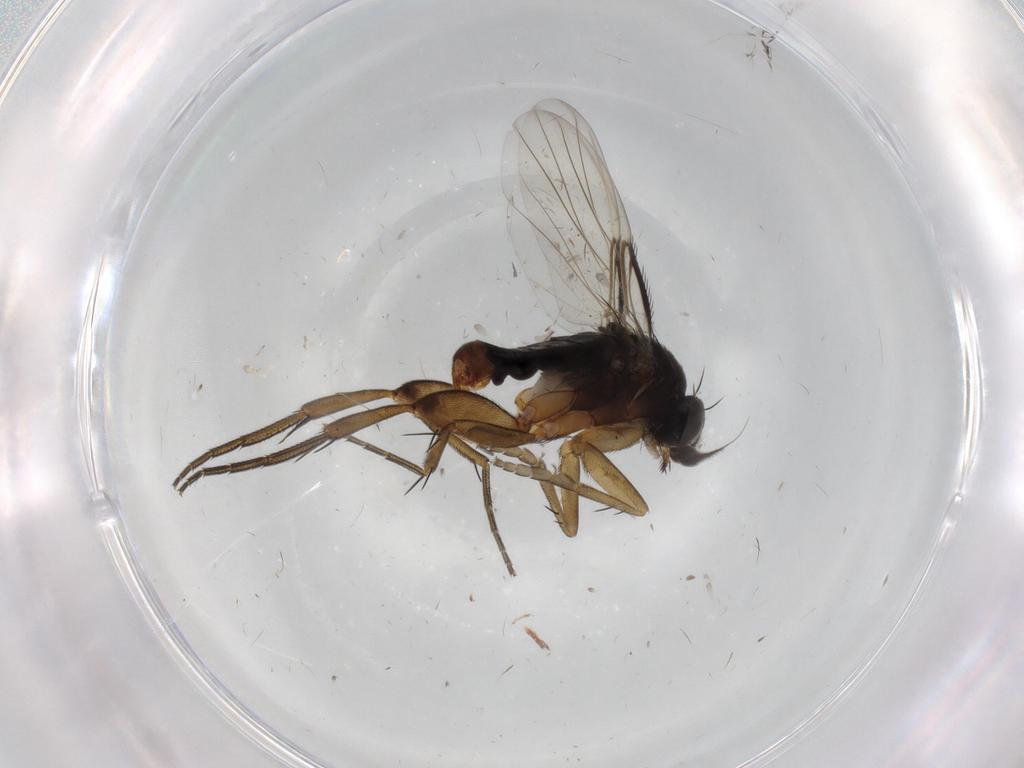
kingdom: Animalia
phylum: Arthropoda
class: Insecta
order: Diptera
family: Phoridae
